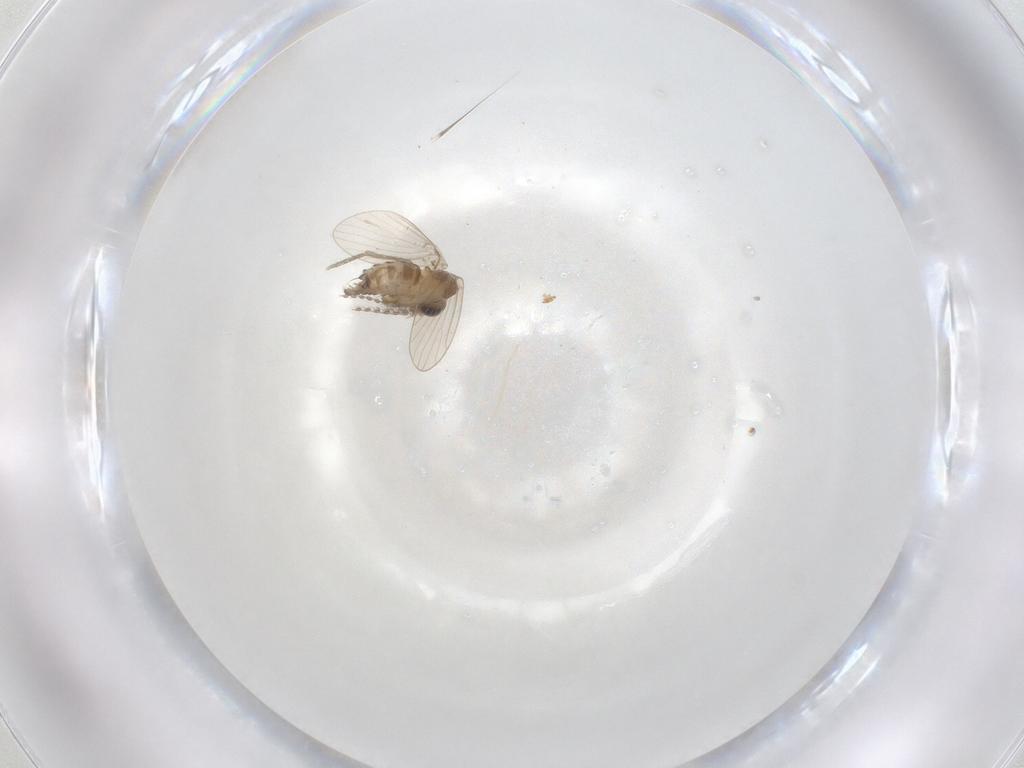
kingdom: Animalia
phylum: Arthropoda
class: Insecta
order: Diptera
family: Psychodidae
